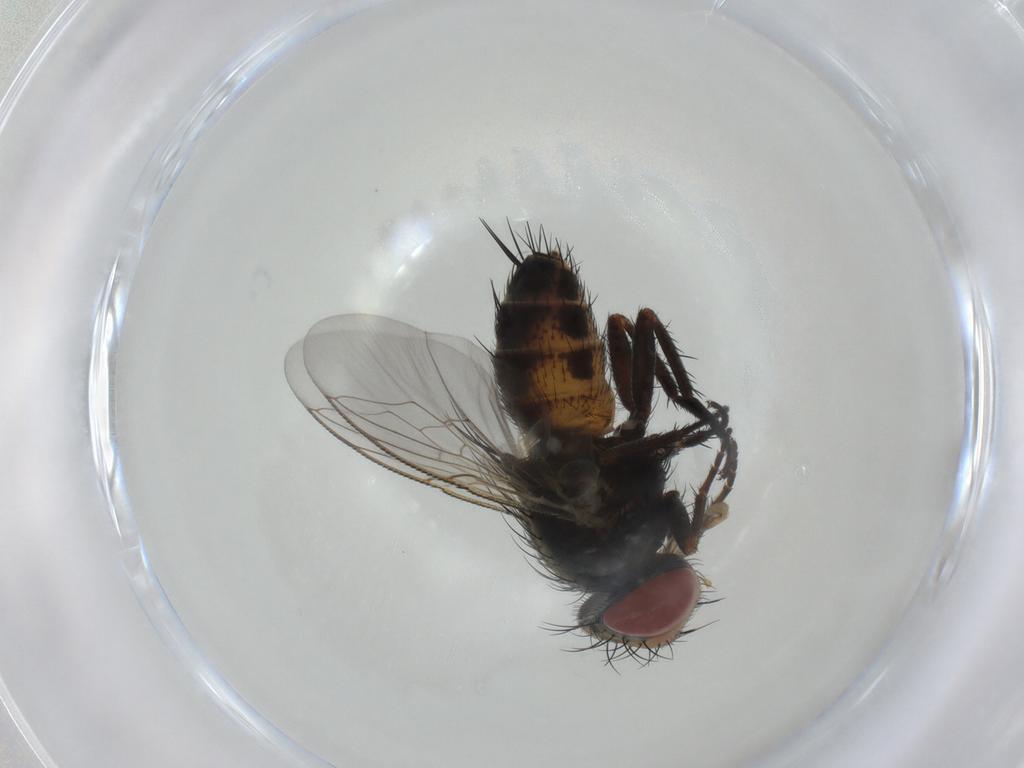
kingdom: Animalia
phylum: Arthropoda
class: Insecta
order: Diptera
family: Sarcophagidae
